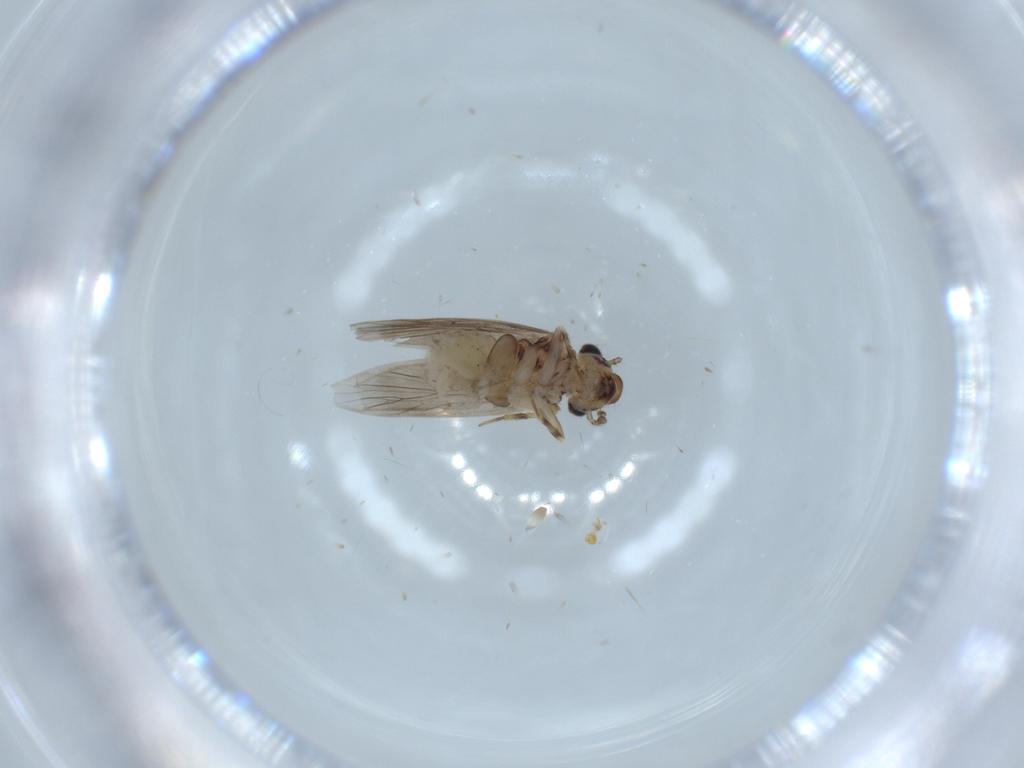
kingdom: Animalia
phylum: Arthropoda
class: Insecta
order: Psocodea
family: Lepidopsocidae
